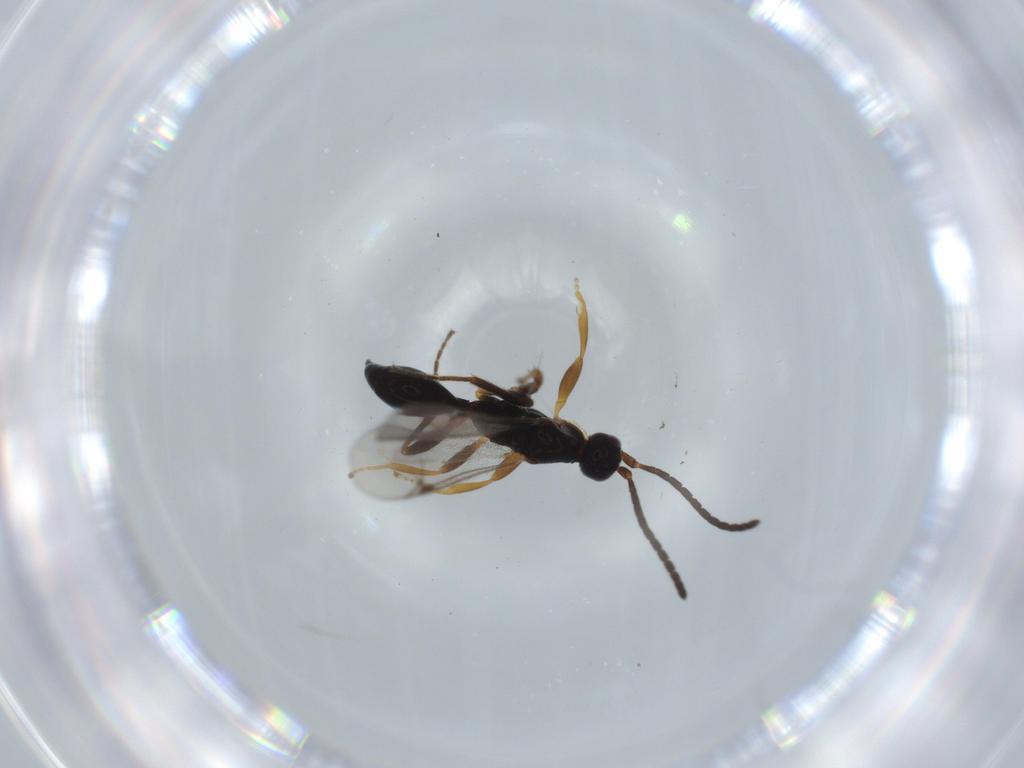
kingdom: Animalia
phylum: Arthropoda
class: Insecta
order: Hymenoptera
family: Proctotrupidae
